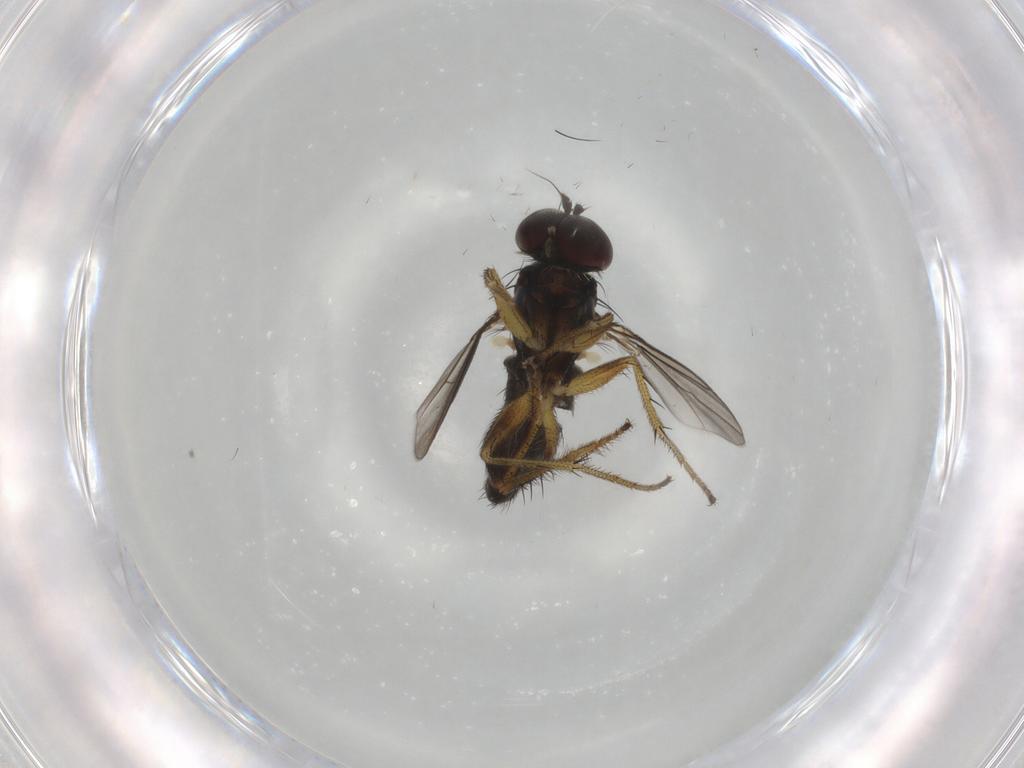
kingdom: Animalia
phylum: Arthropoda
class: Insecta
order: Diptera
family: Dolichopodidae
